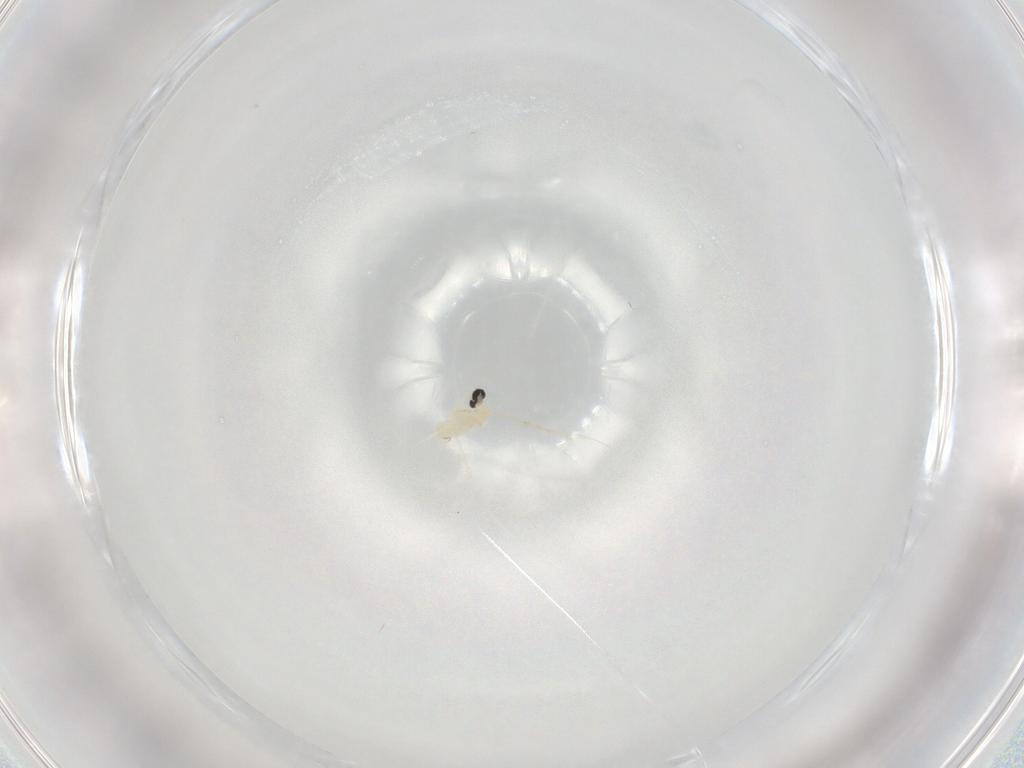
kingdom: Animalia
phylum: Arthropoda
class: Insecta
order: Diptera
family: Cecidomyiidae
